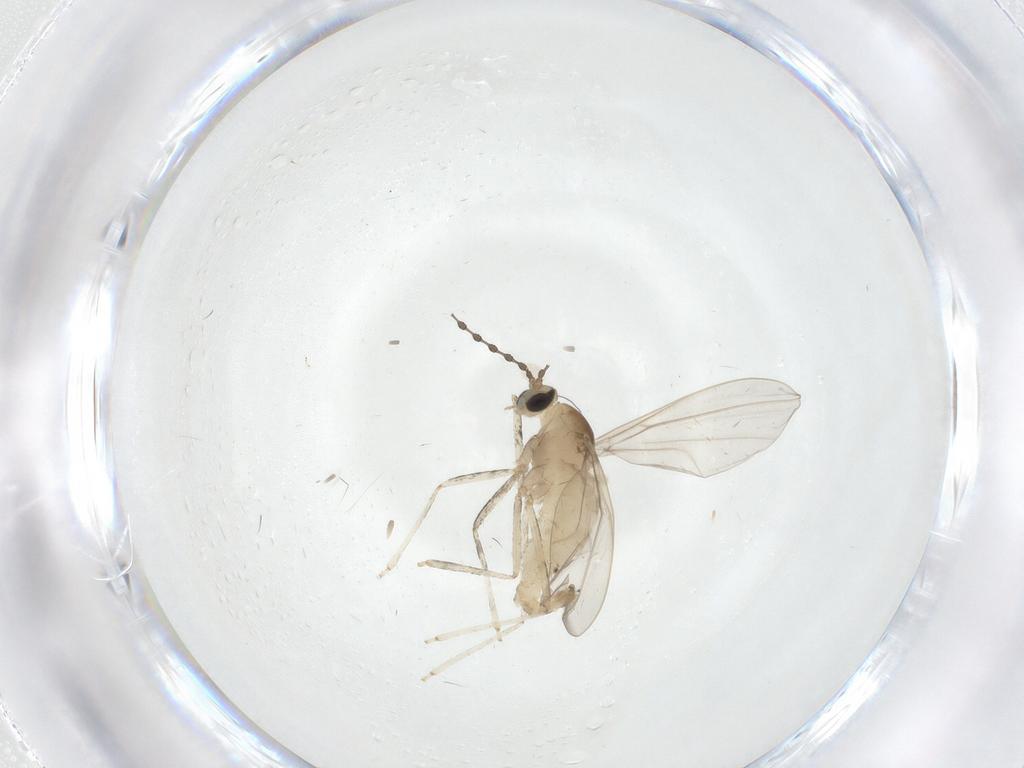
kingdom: Animalia
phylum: Arthropoda
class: Insecta
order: Diptera
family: Cecidomyiidae
